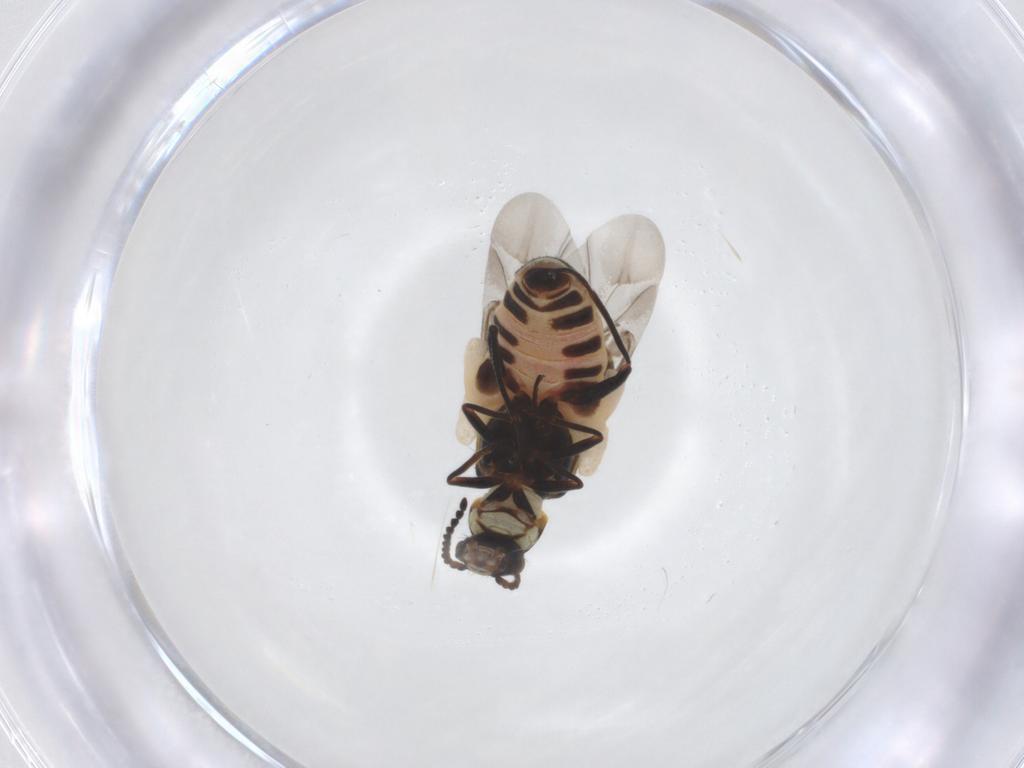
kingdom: Animalia
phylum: Arthropoda
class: Insecta
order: Coleoptera
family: Melyridae
